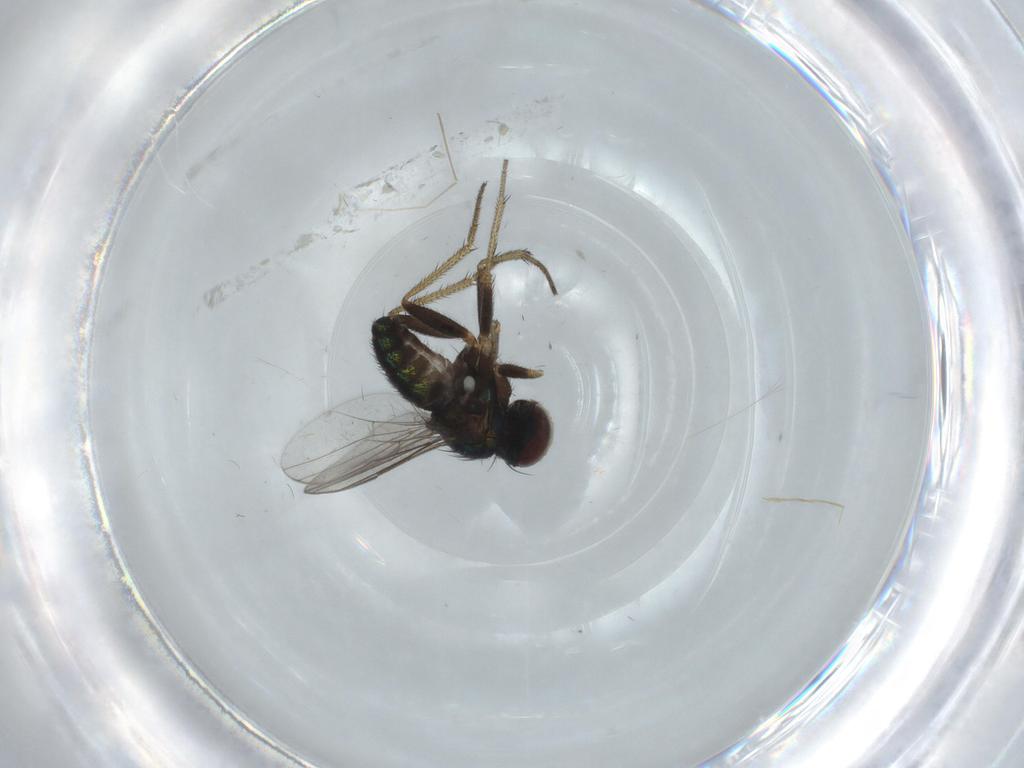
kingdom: Animalia
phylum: Arthropoda
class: Insecta
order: Diptera
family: Dolichopodidae
